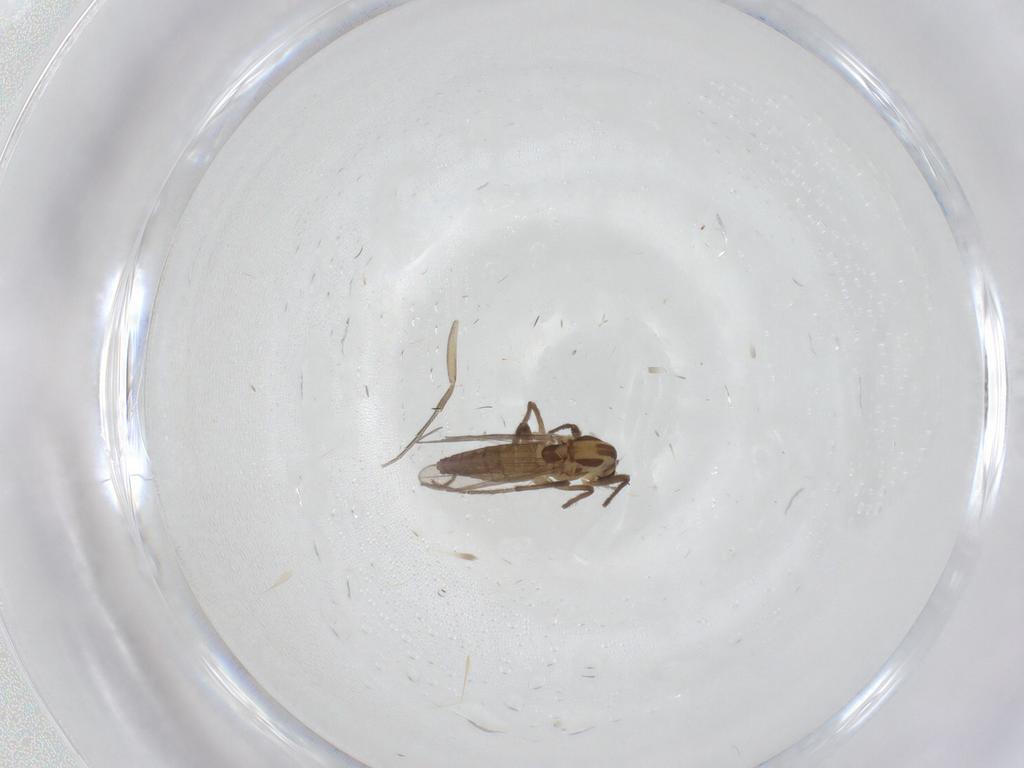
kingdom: Animalia
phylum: Arthropoda
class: Insecta
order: Diptera
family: Chironomidae
